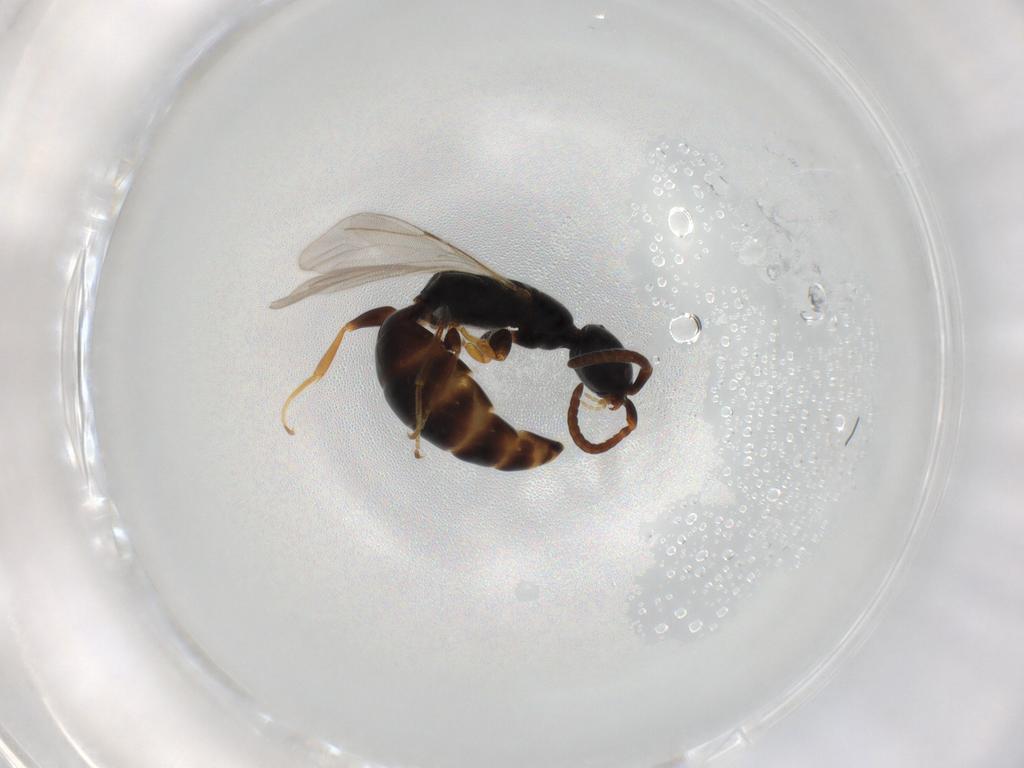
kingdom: Animalia
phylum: Arthropoda
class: Insecta
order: Hymenoptera
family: Bethylidae
